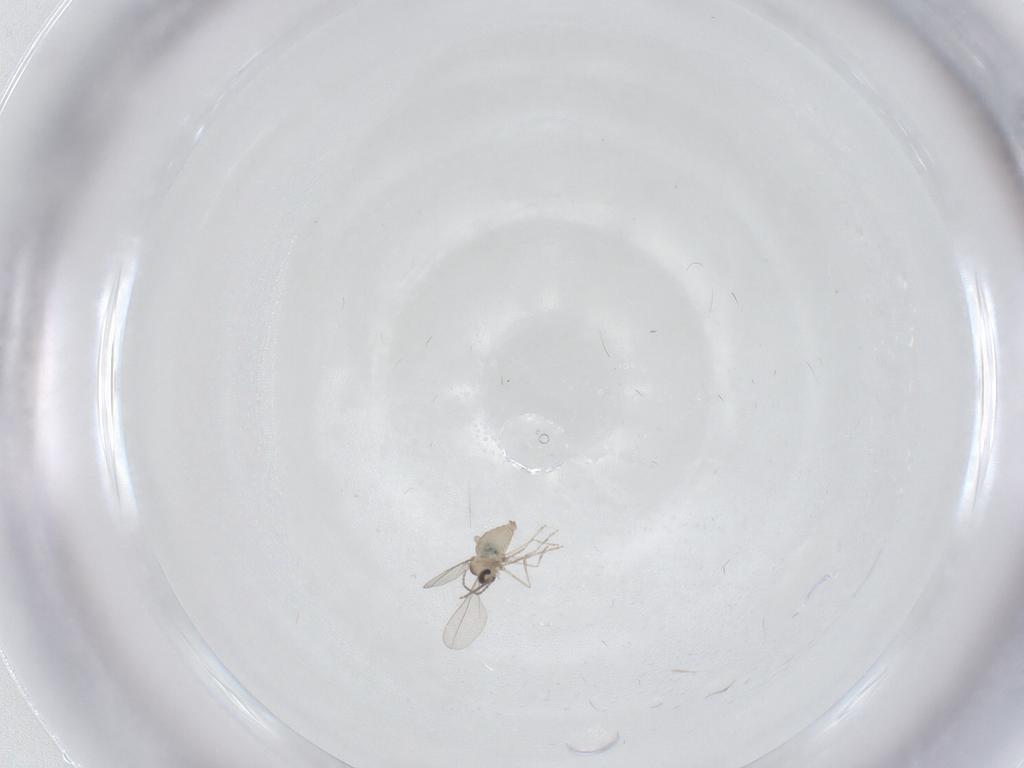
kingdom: Animalia
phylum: Arthropoda
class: Insecta
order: Diptera
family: Cecidomyiidae
